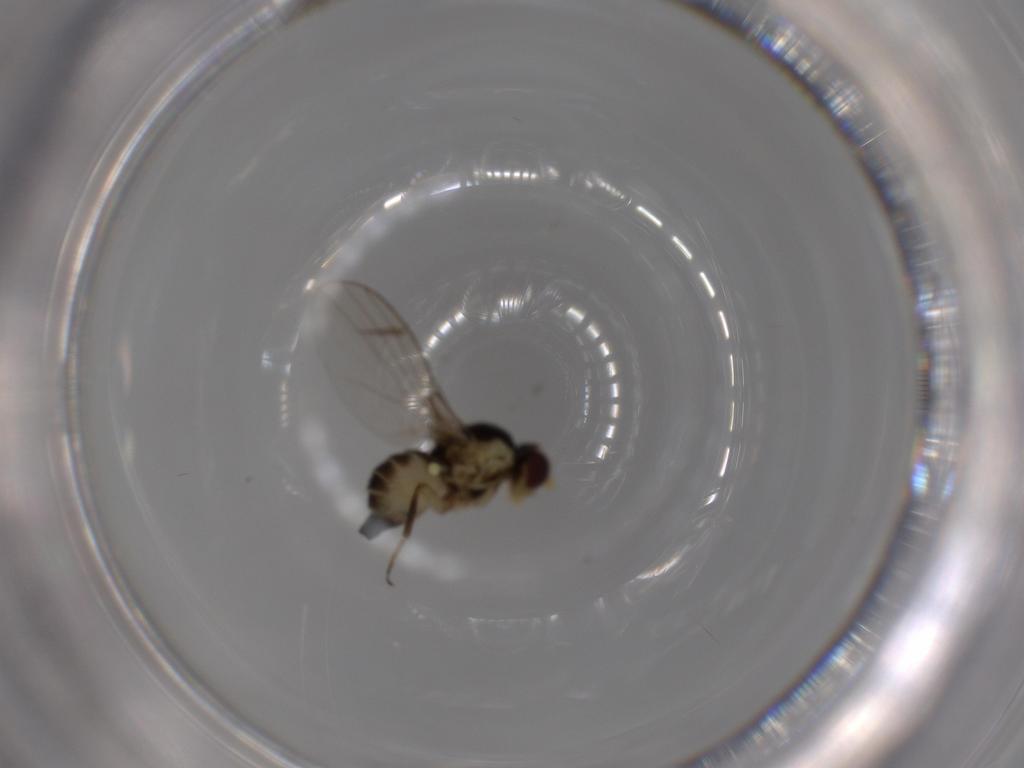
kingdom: Animalia
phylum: Arthropoda
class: Insecta
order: Diptera
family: Agromyzidae
